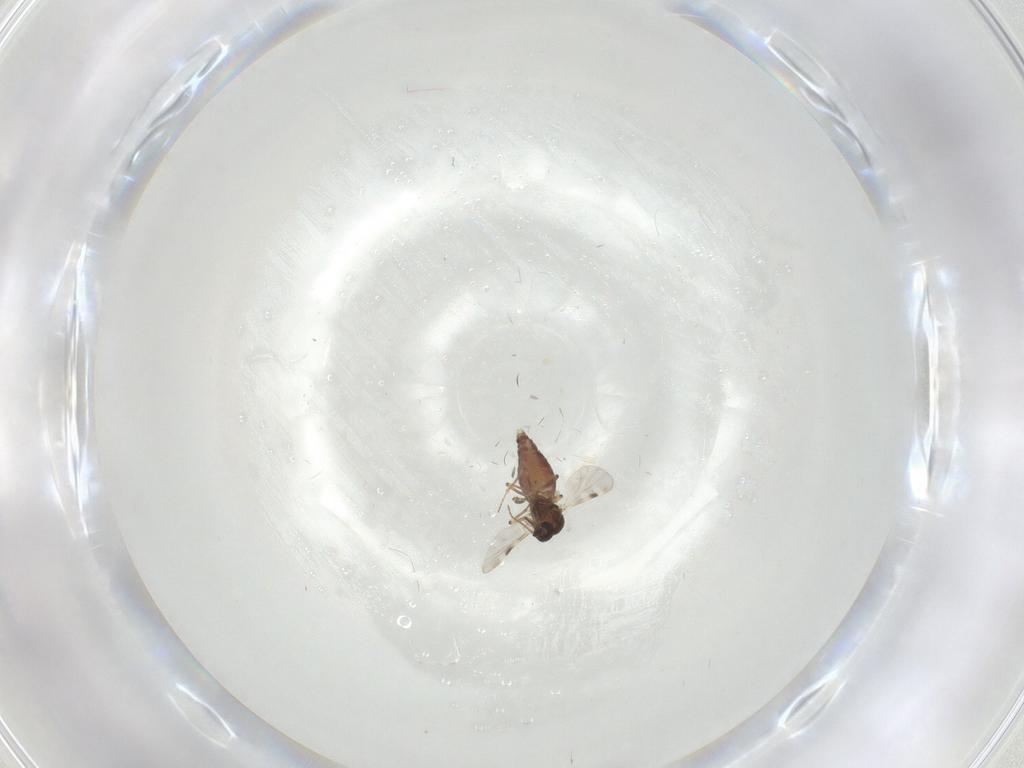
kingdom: Animalia
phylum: Arthropoda
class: Insecta
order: Diptera
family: Phoridae
